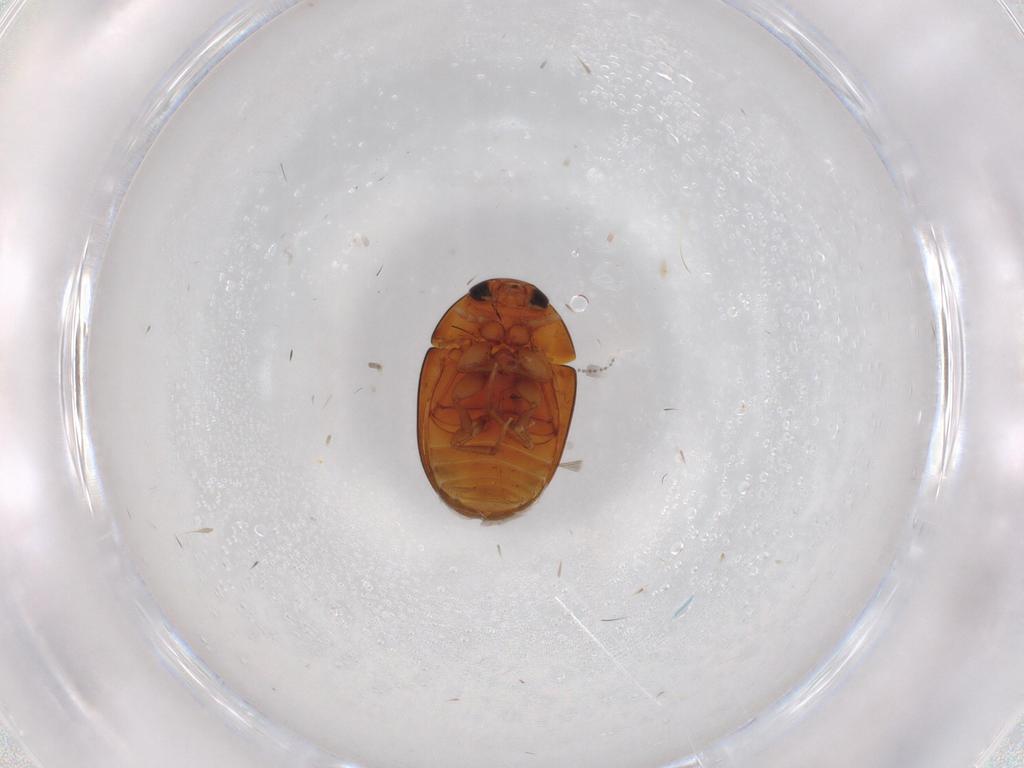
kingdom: Animalia
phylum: Arthropoda
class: Insecta
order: Coleoptera
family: Phalacridae
